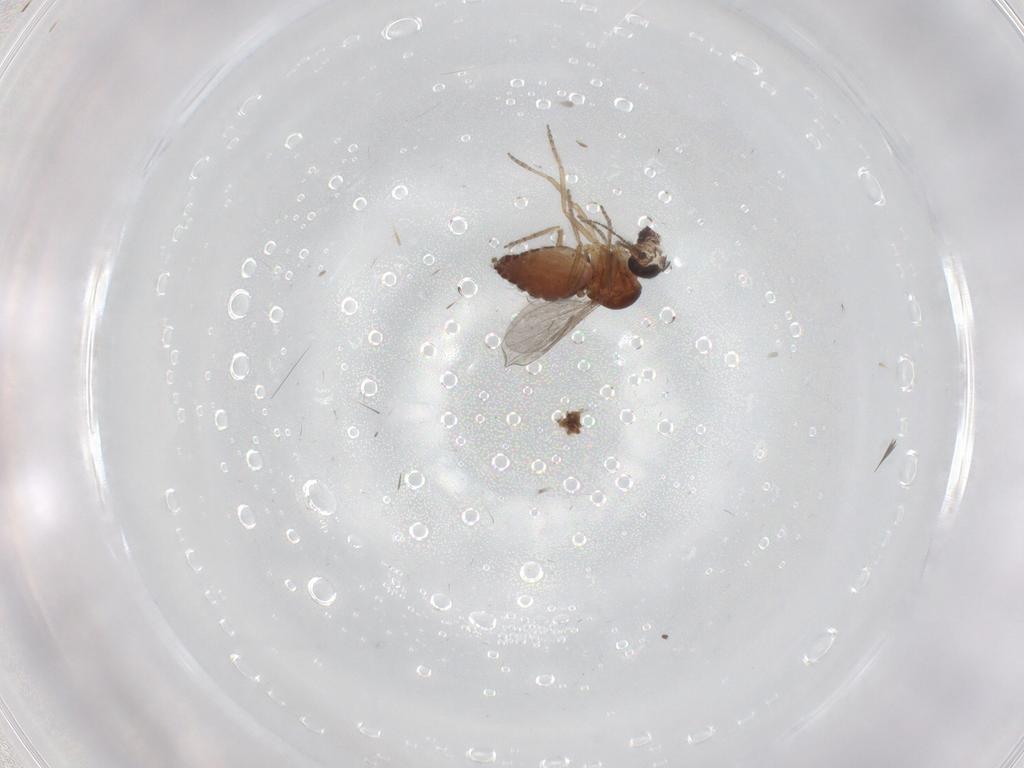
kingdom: Animalia
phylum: Arthropoda
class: Insecta
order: Diptera
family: Ceratopogonidae
